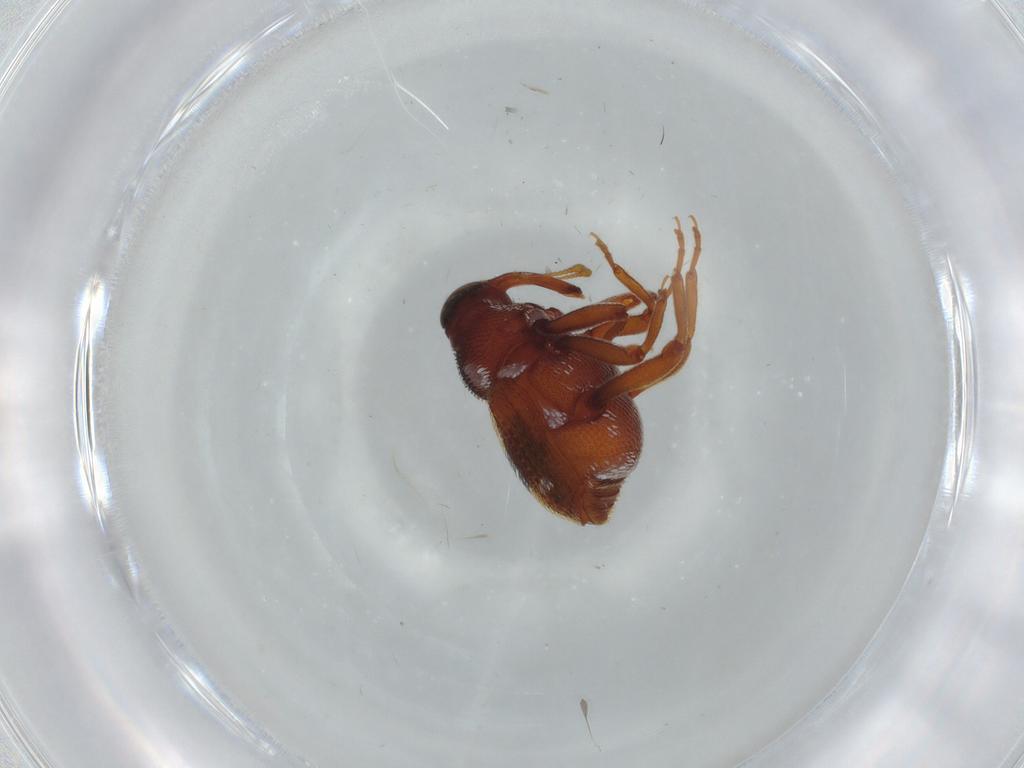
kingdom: Animalia
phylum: Arthropoda
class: Insecta
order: Coleoptera
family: Curculionidae
